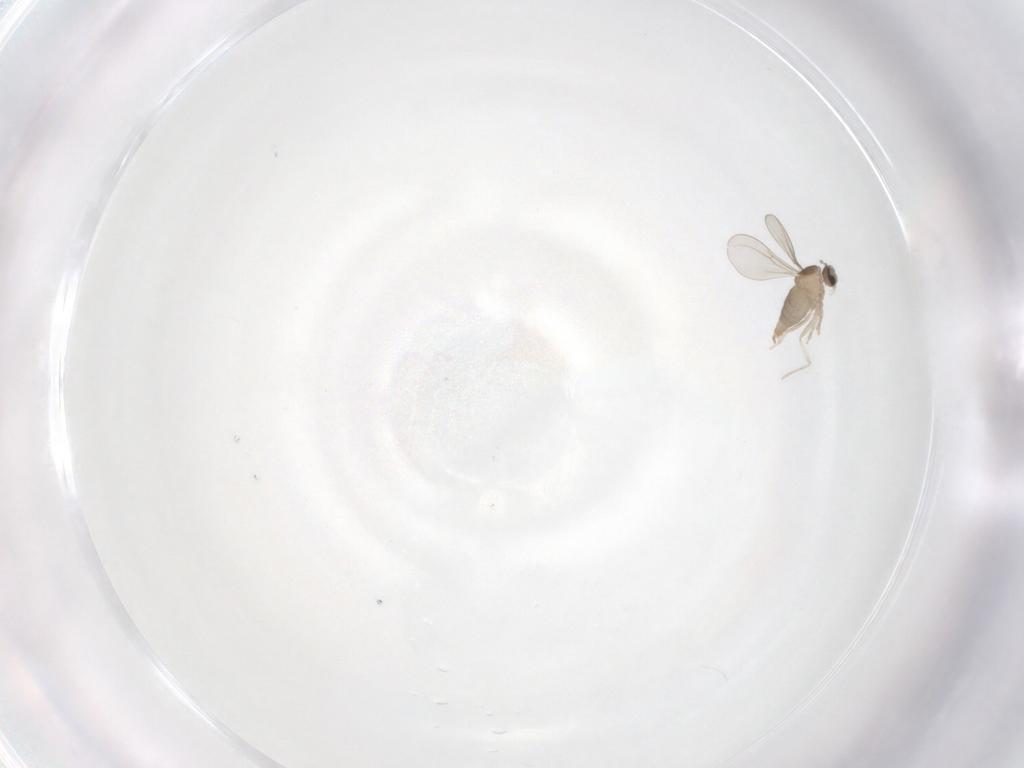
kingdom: Animalia
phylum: Arthropoda
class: Insecta
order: Diptera
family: Cecidomyiidae
